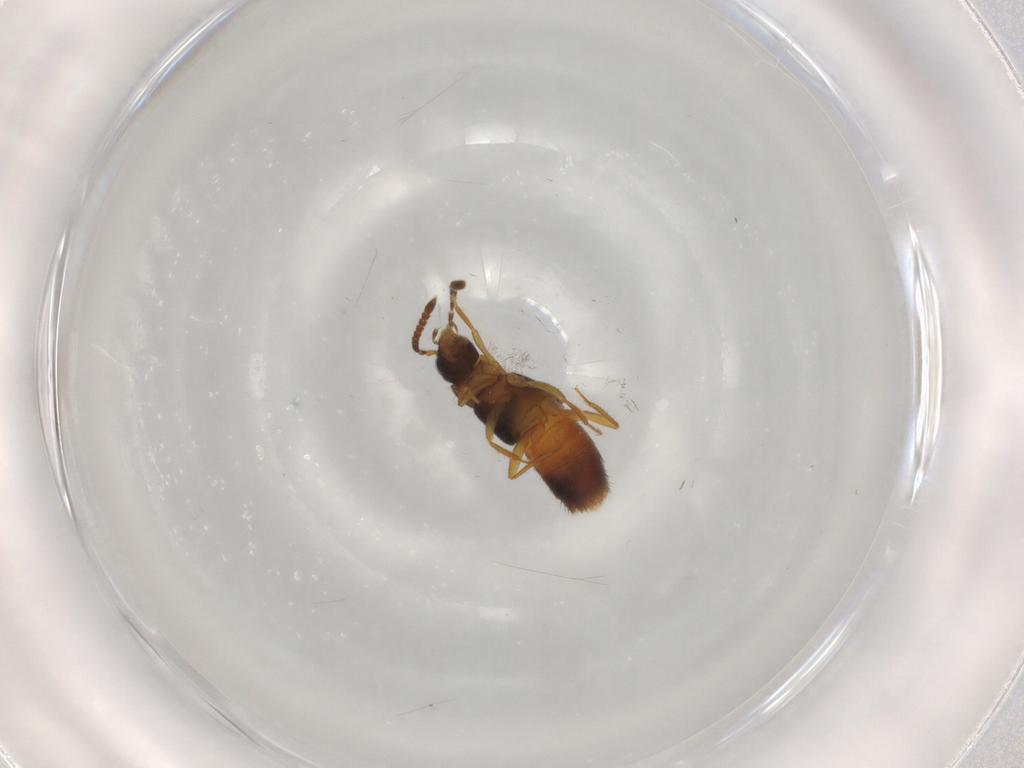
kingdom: Animalia
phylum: Arthropoda
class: Insecta
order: Coleoptera
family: Staphylinidae
